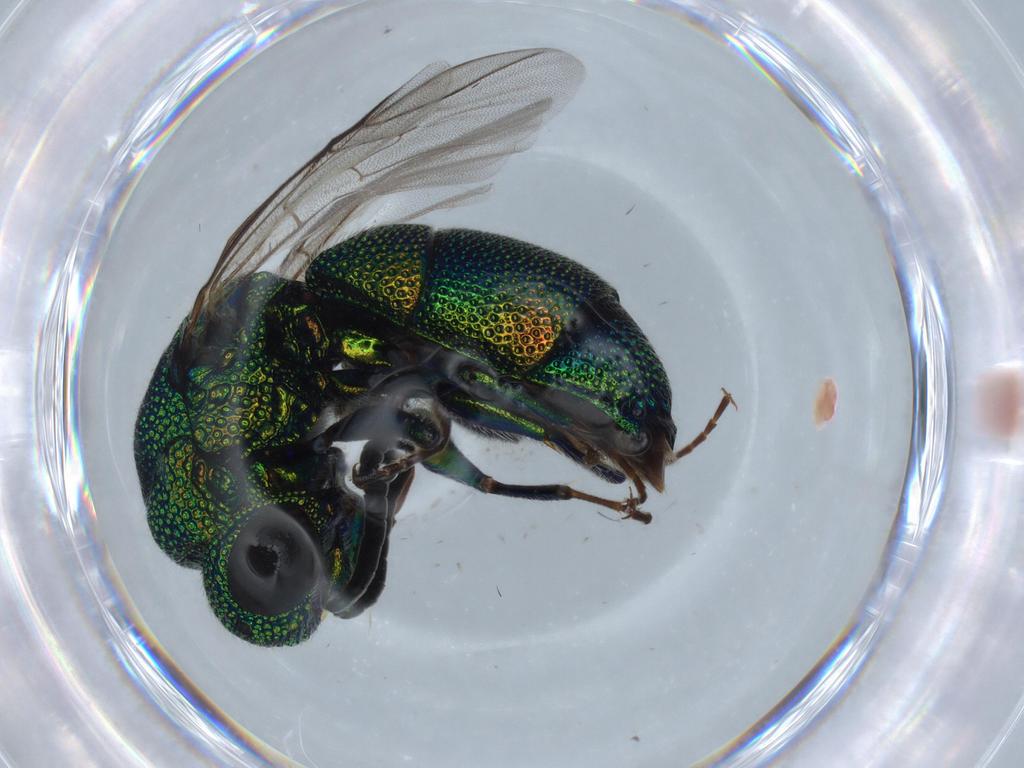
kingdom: Animalia
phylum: Arthropoda
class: Insecta
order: Hymenoptera
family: Chrysididae
